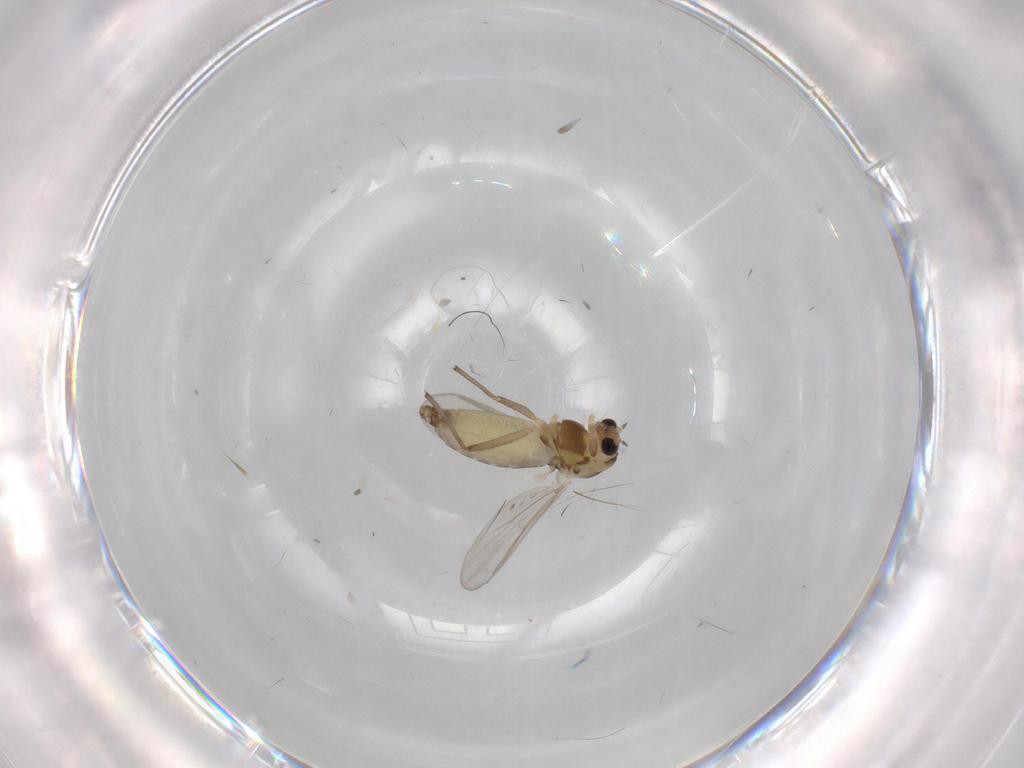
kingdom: Animalia
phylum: Arthropoda
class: Insecta
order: Diptera
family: Chironomidae
